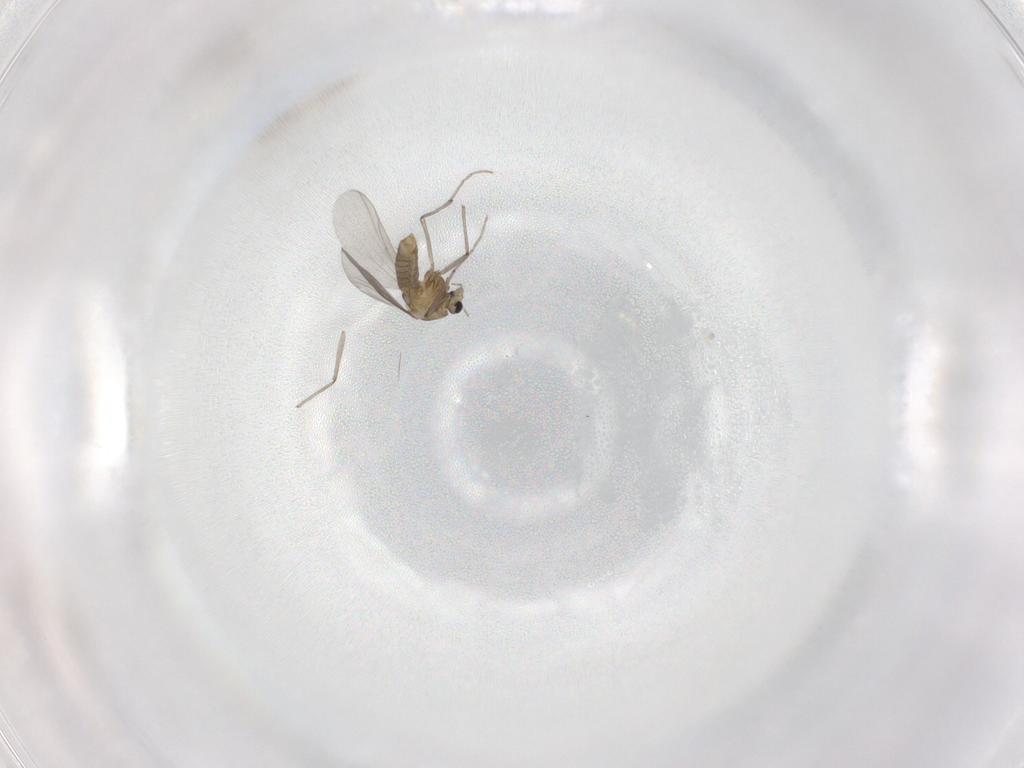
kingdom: Animalia
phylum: Arthropoda
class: Insecta
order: Diptera
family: Chironomidae
